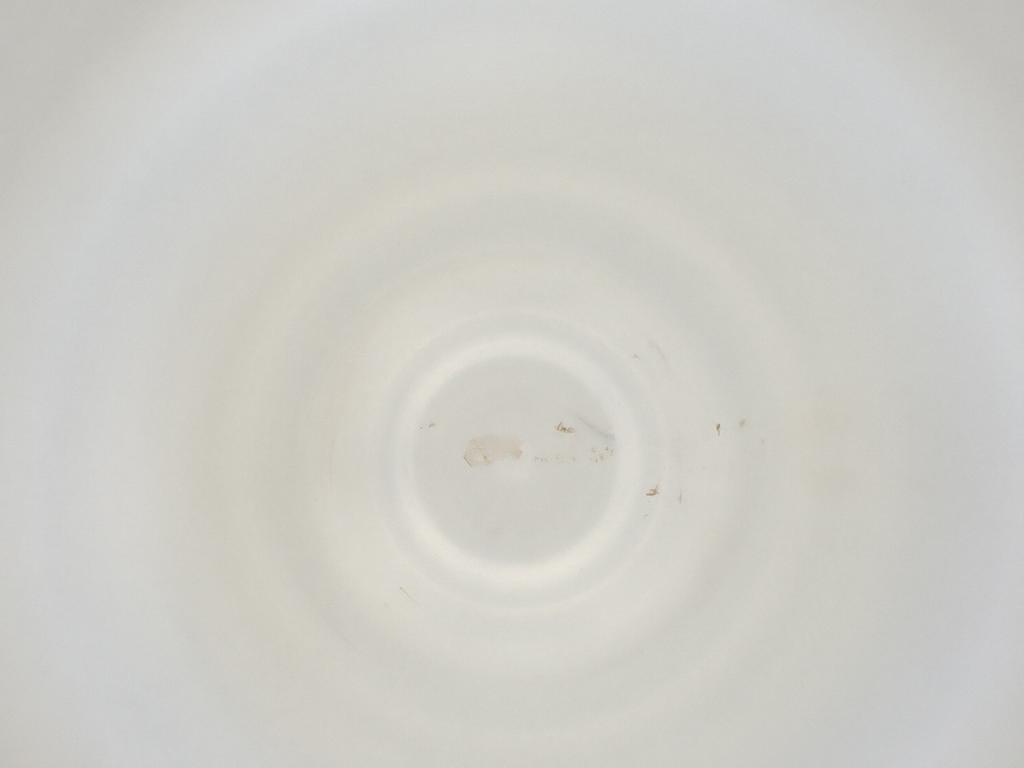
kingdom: Animalia
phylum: Arthropoda
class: Insecta
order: Diptera
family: Cecidomyiidae
